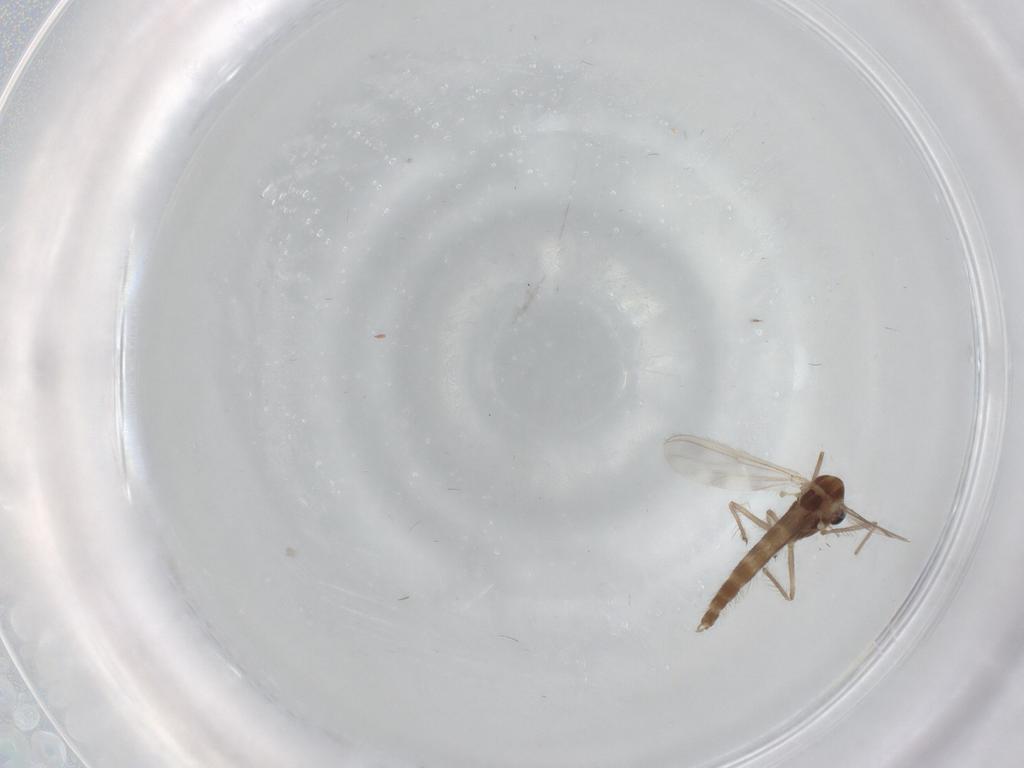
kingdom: Animalia
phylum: Arthropoda
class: Insecta
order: Diptera
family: Chironomidae
